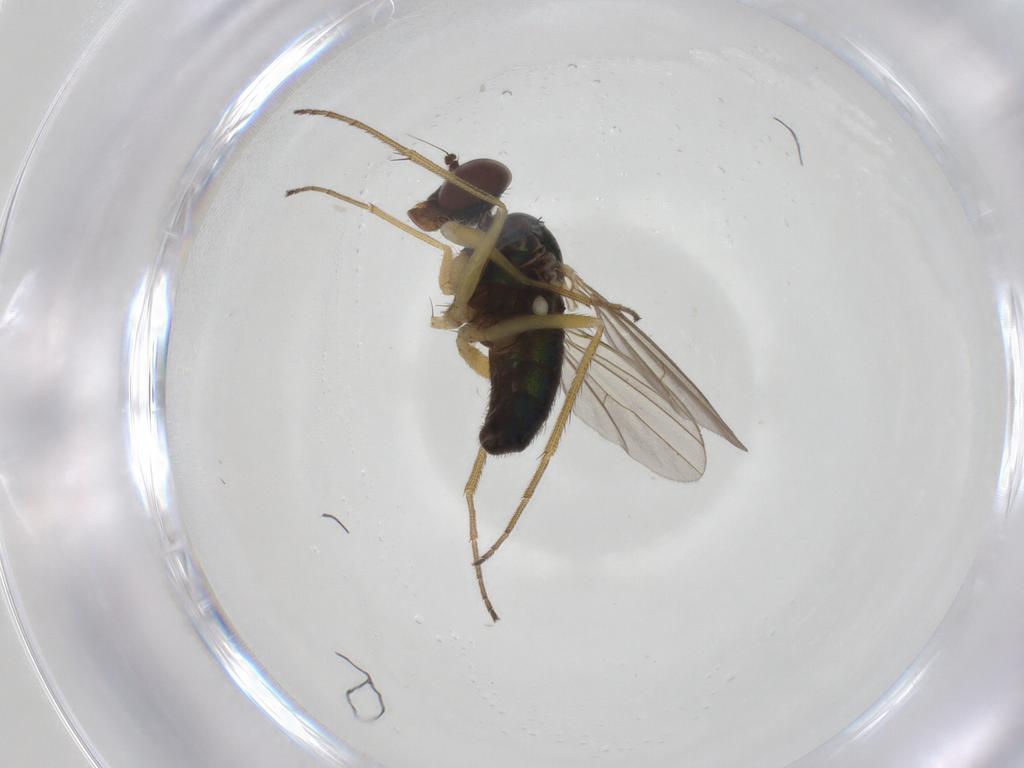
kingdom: Animalia
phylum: Arthropoda
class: Insecta
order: Diptera
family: Dolichopodidae
